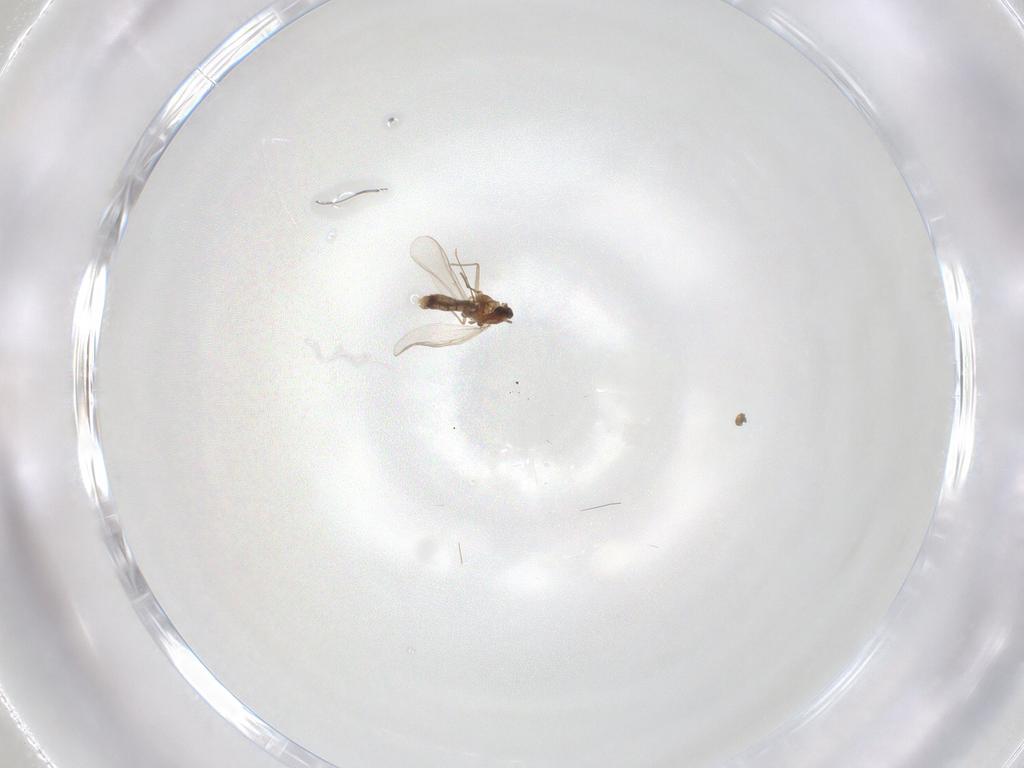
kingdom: Animalia
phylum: Arthropoda
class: Insecta
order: Diptera
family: Chironomidae
